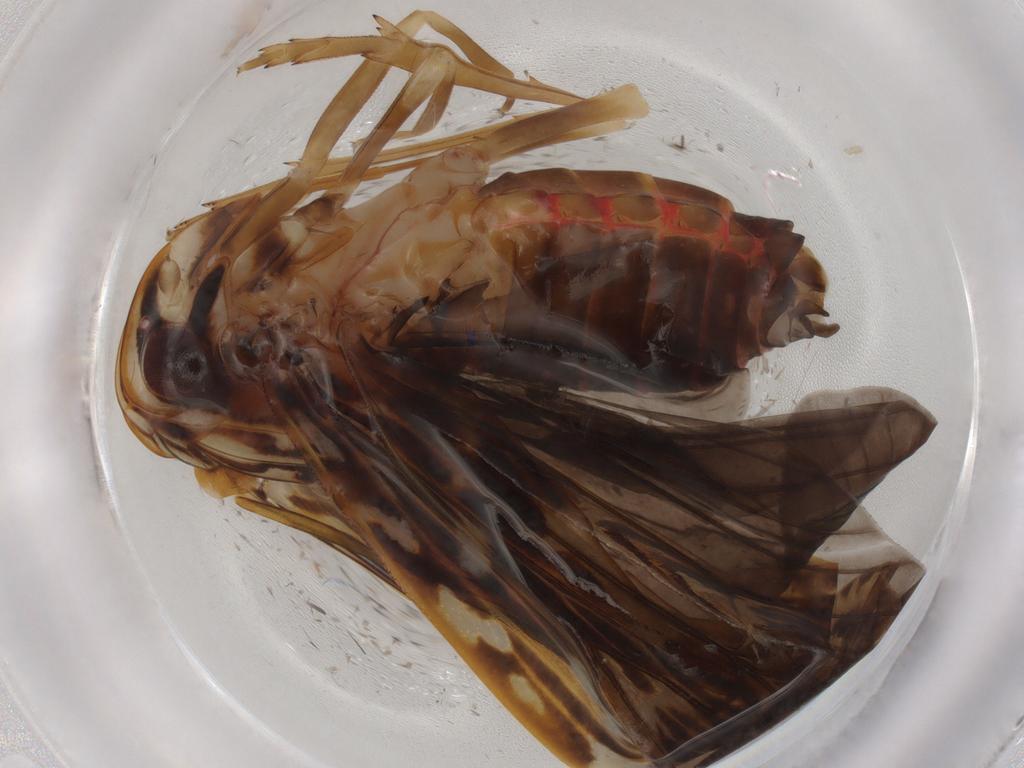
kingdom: Animalia
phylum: Arthropoda
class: Insecta
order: Hemiptera
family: Achilidae
